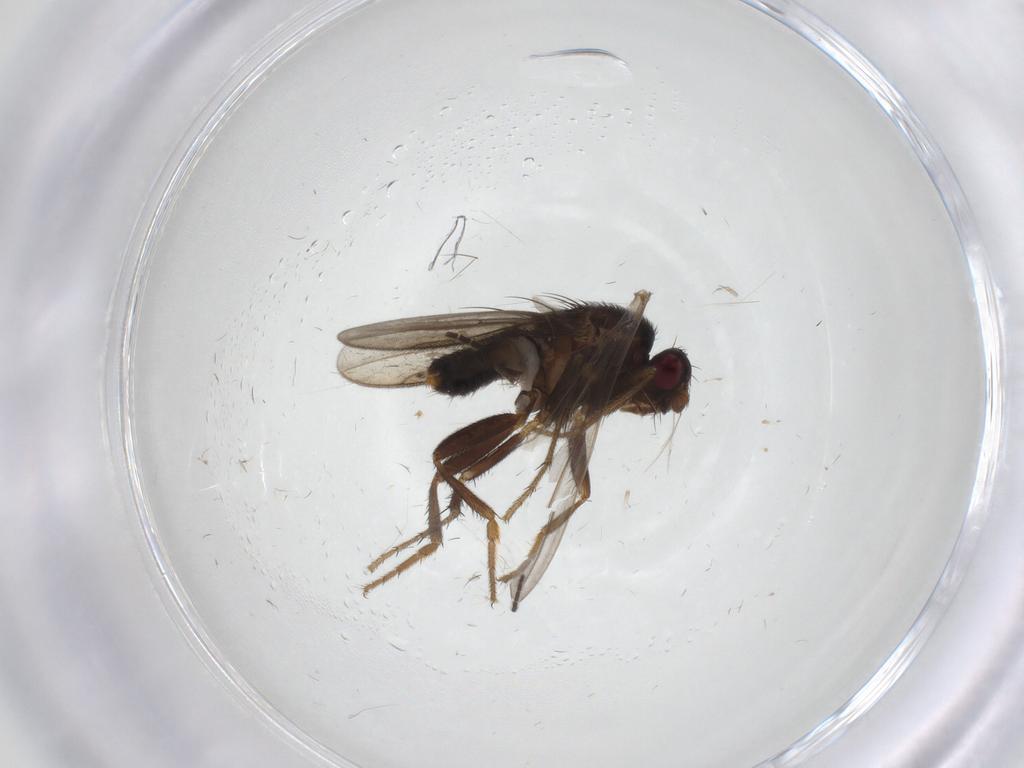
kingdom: Animalia
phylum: Arthropoda
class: Insecta
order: Diptera
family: Sphaeroceridae
